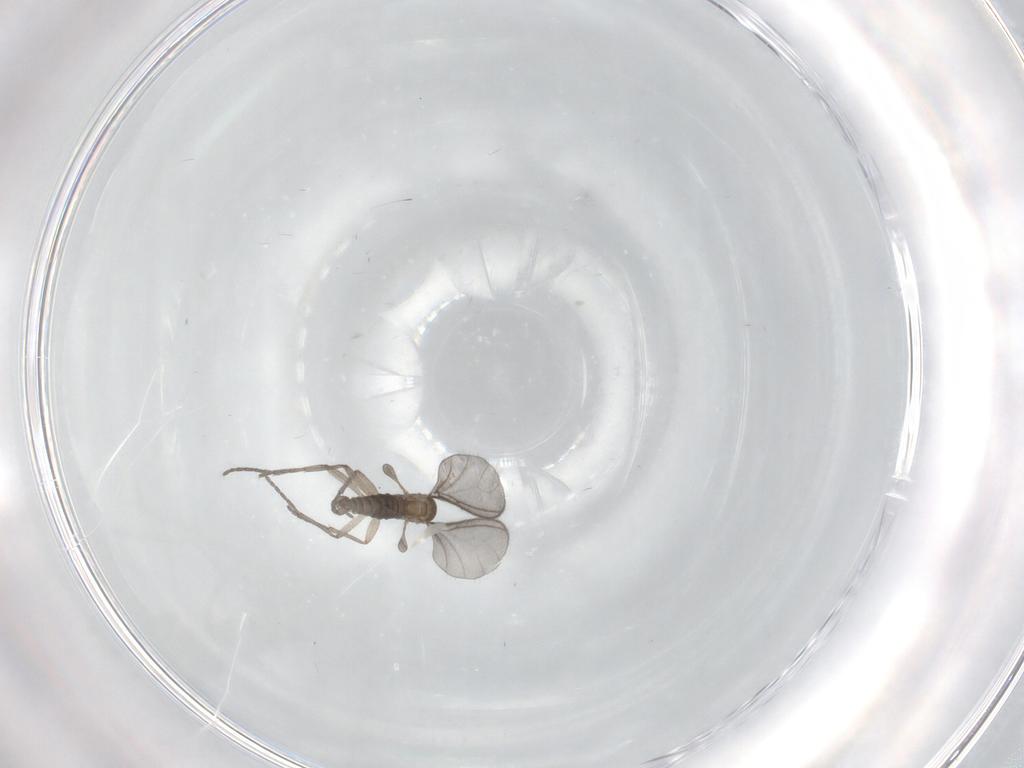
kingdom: Animalia
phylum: Arthropoda
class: Insecta
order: Diptera
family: Sciaridae
